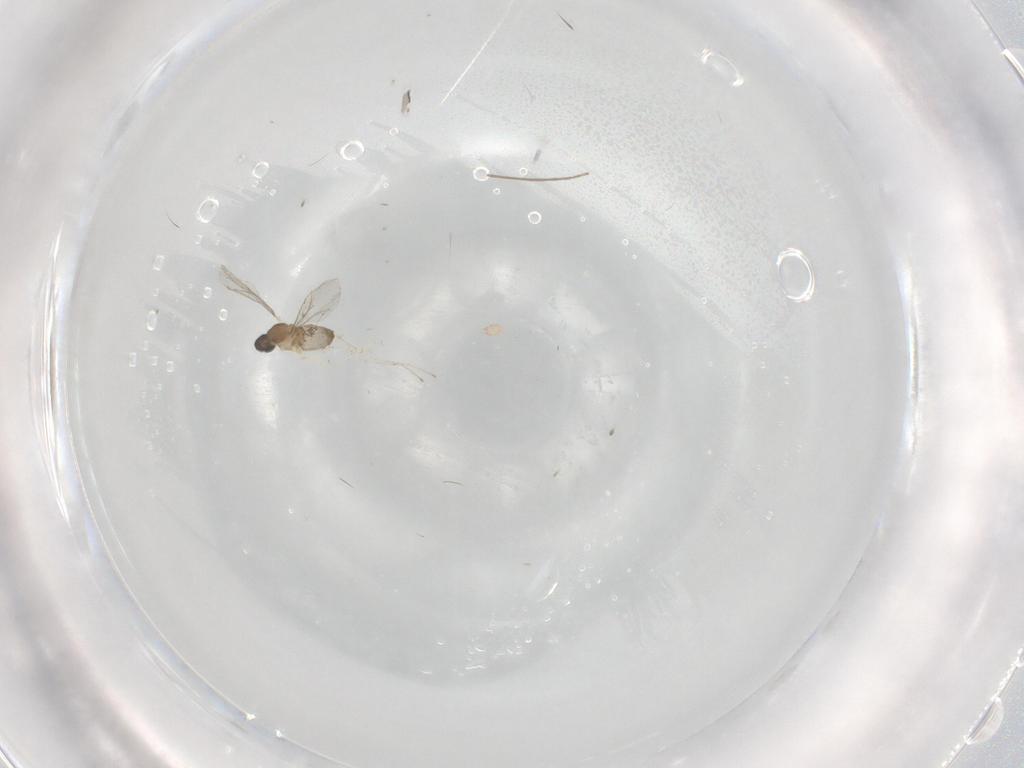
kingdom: Animalia
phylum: Arthropoda
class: Insecta
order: Diptera
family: Cecidomyiidae
